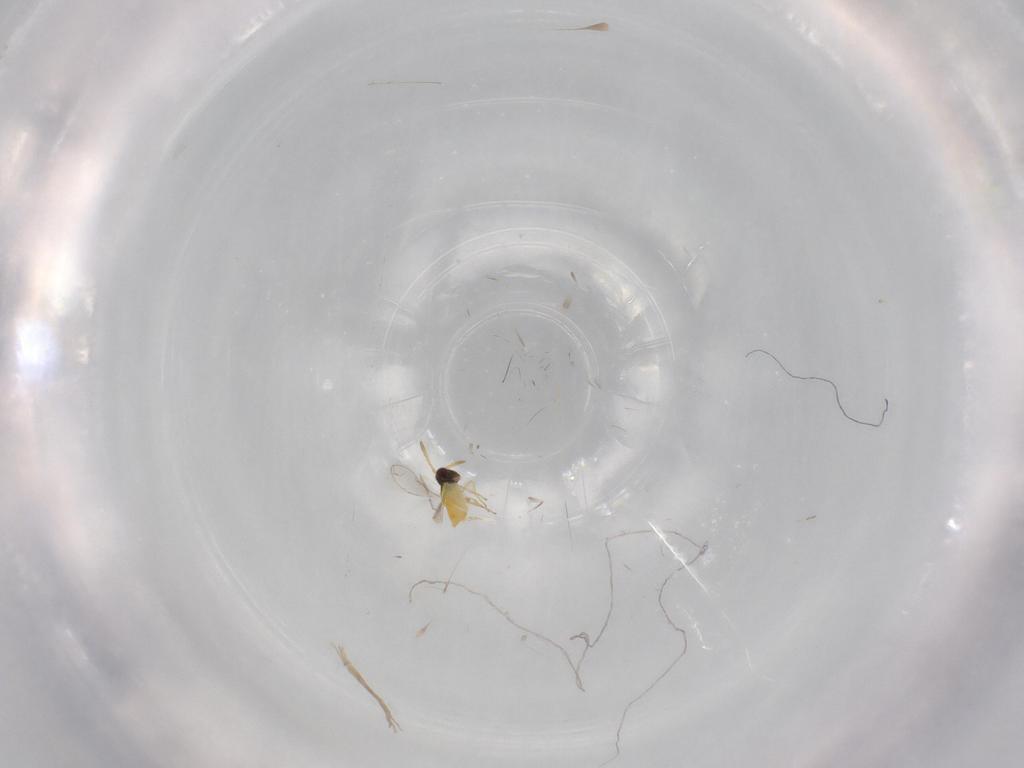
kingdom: Animalia
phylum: Arthropoda
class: Insecta
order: Hymenoptera
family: Aphelinidae
